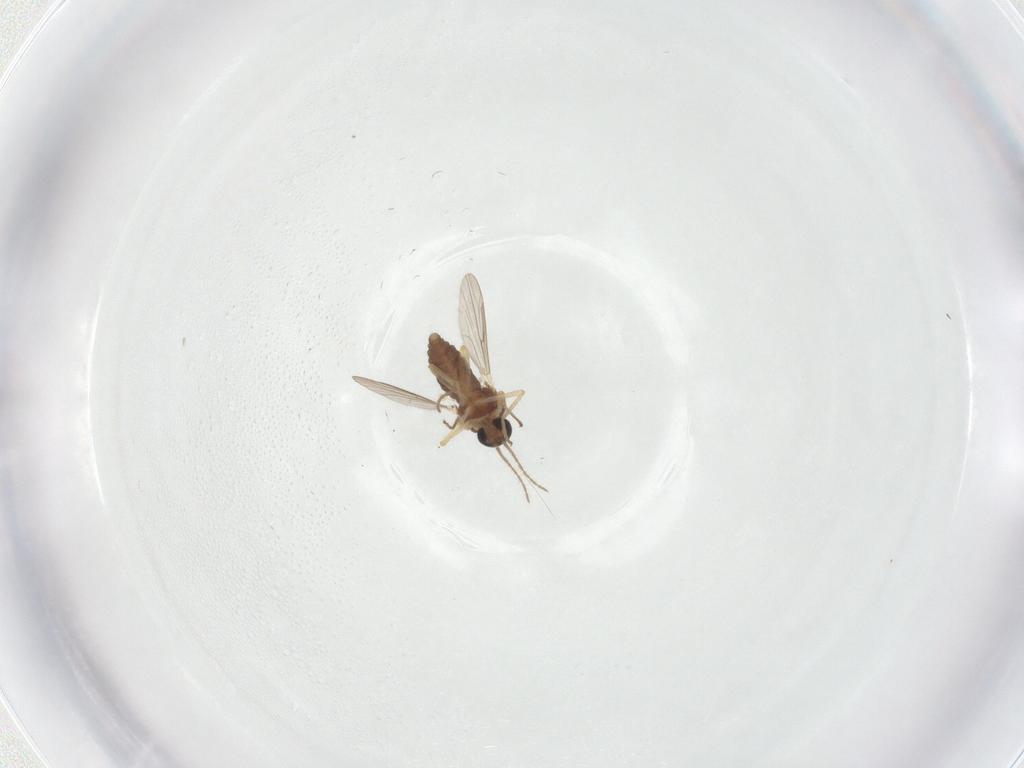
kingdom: Animalia
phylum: Arthropoda
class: Insecta
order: Diptera
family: Ceratopogonidae
